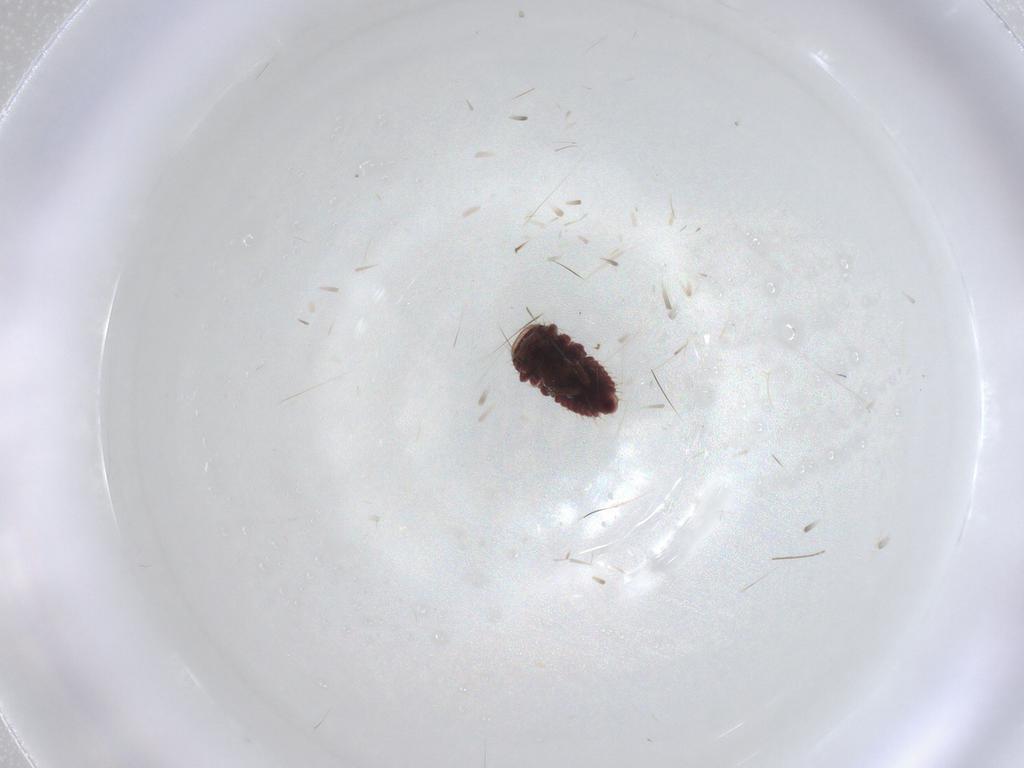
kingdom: Animalia
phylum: Arthropoda
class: Insecta
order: Coleoptera
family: Coccinellidae
